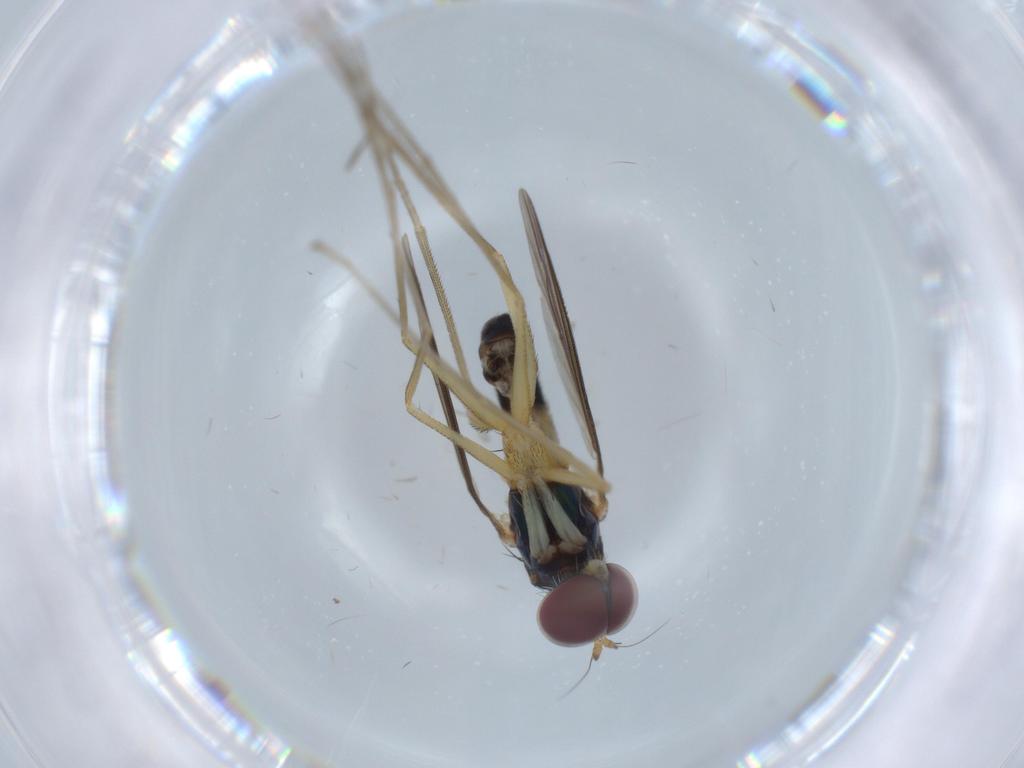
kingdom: Animalia
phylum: Arthropoda
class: Insecta
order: Diptera
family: Dolichopodidae
